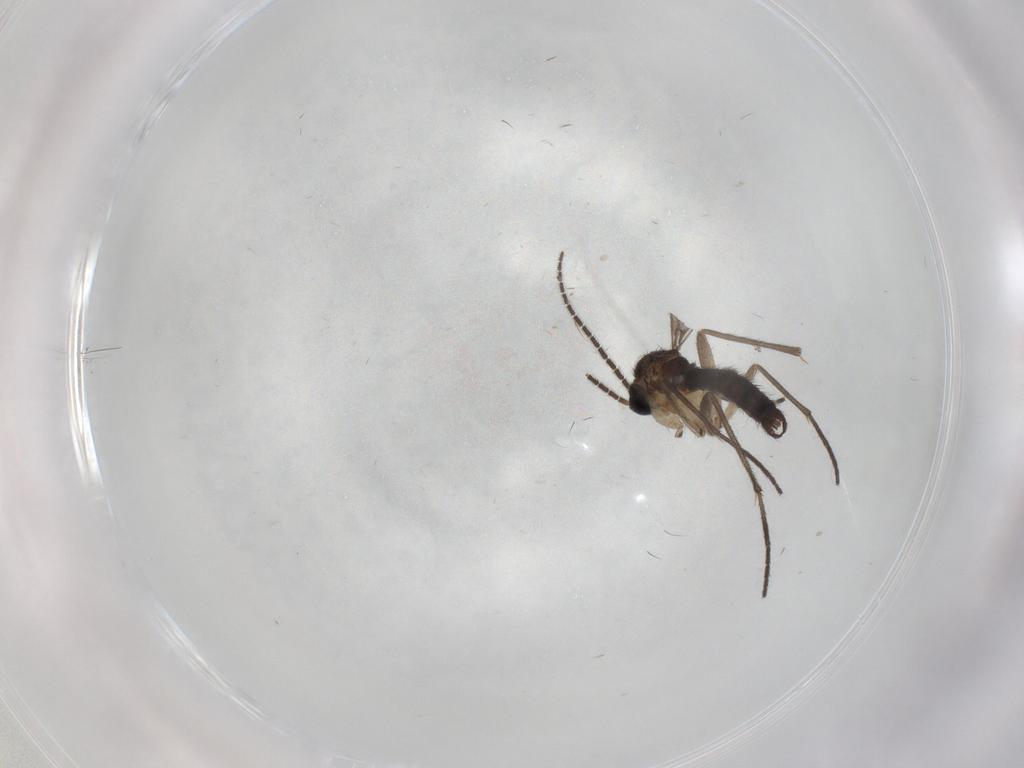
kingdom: Animalia
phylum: Arthropoda
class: Insecta
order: Diptera
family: Sciaridae
